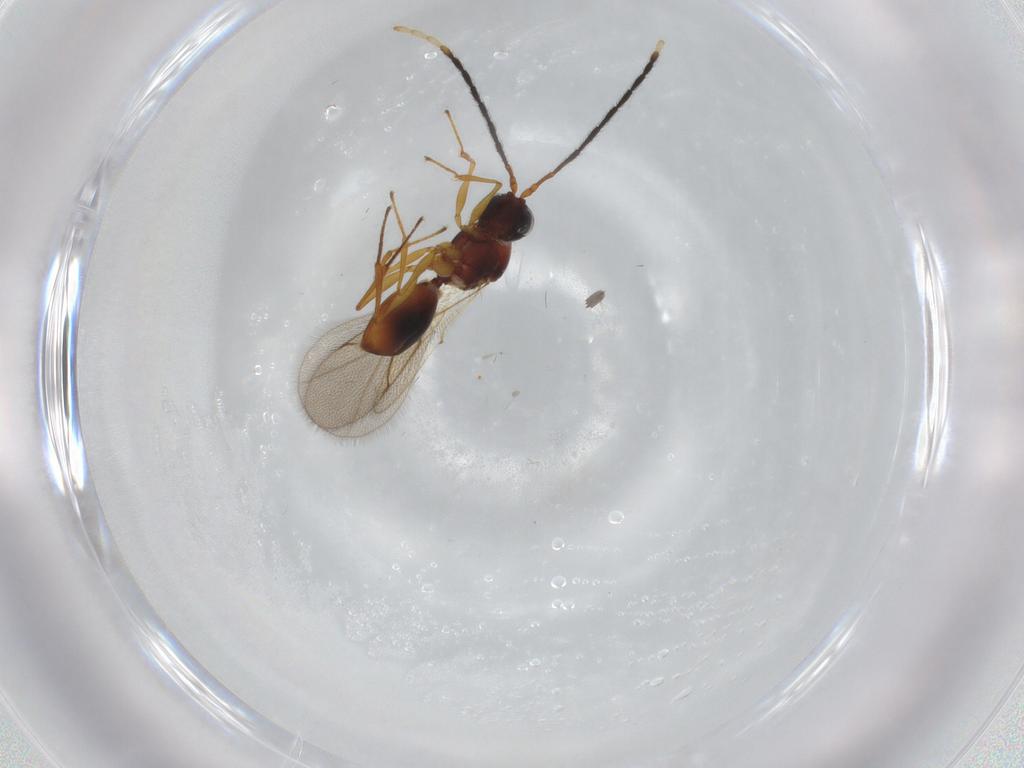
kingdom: Animalia
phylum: Arthropoda
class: Insecta
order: Hymenoptera
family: Figitidae
